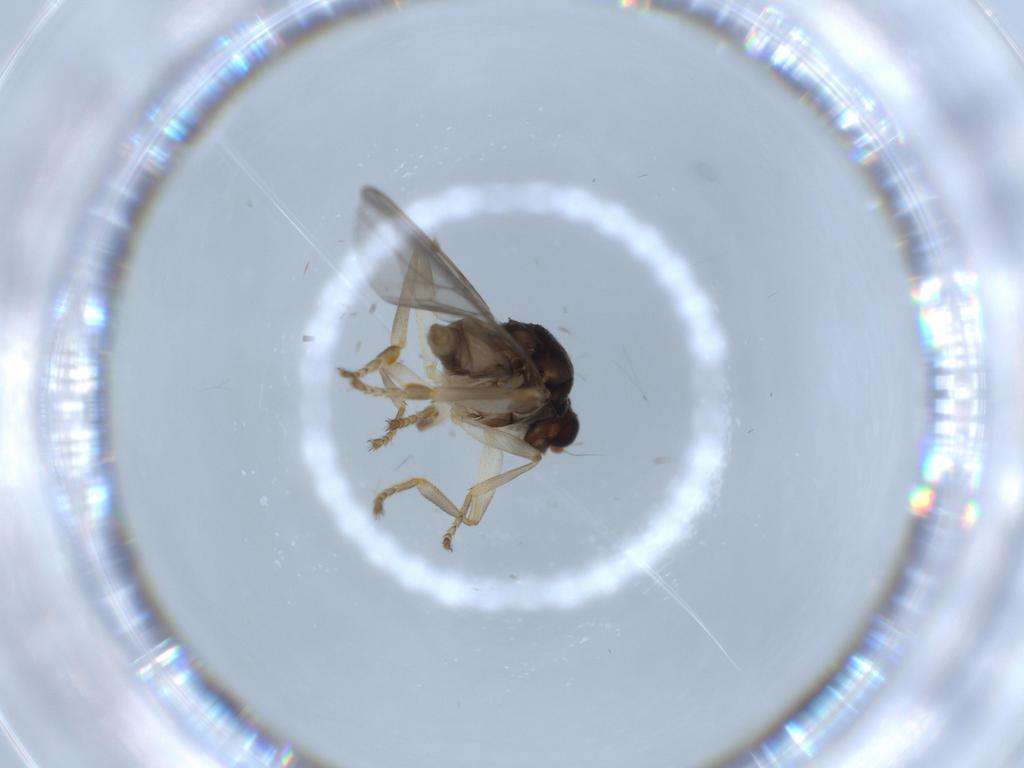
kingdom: Animalia
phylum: Arthropoda
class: Insecta
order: Diptera
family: Sphaeroceridae
